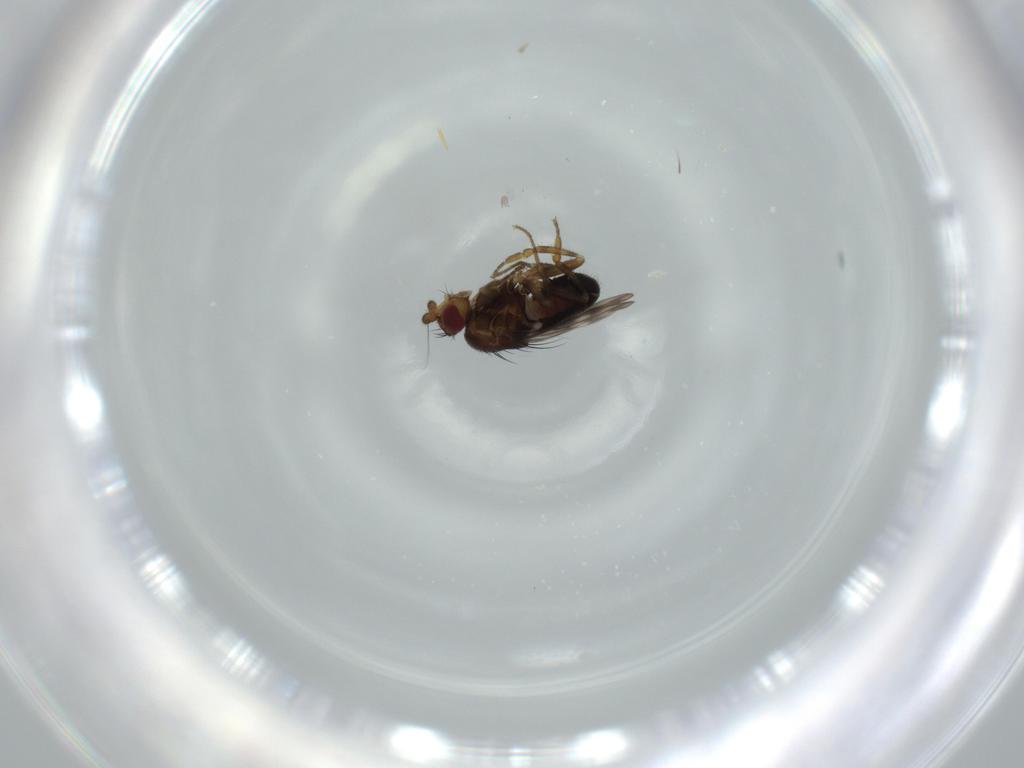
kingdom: Animalia
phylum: Arthropoda
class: Insecta
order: Diptera
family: Sphaeroceridae
